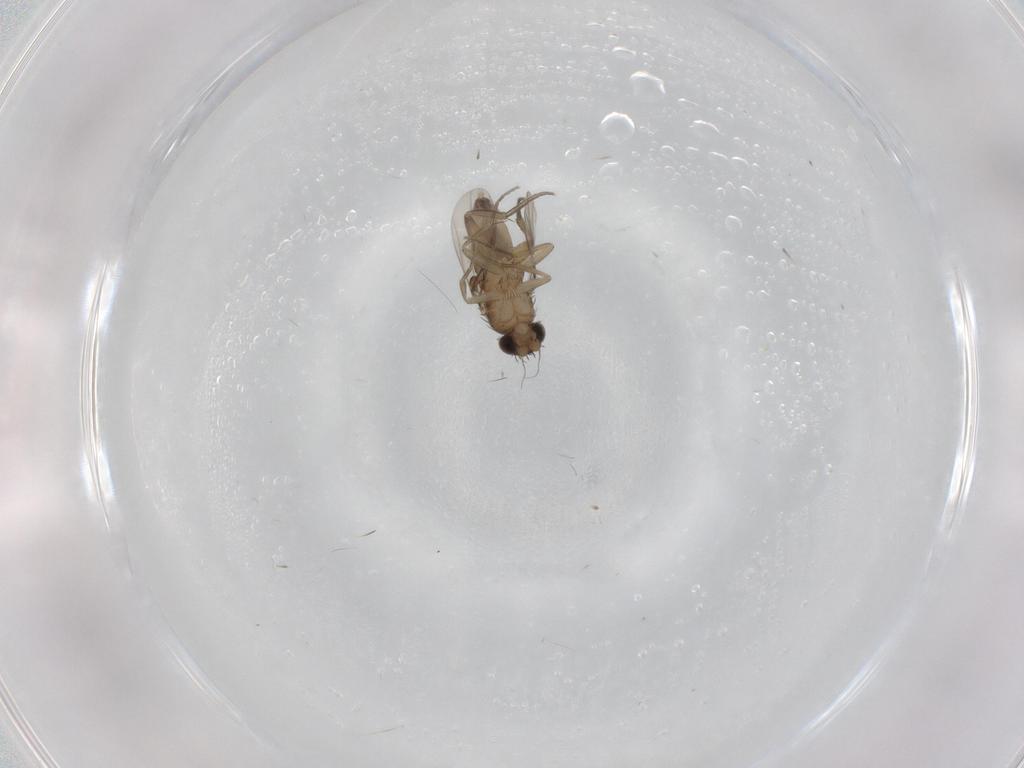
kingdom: Animalia
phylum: Arthropoda
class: Insecta
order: Diptera
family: Phoridae
